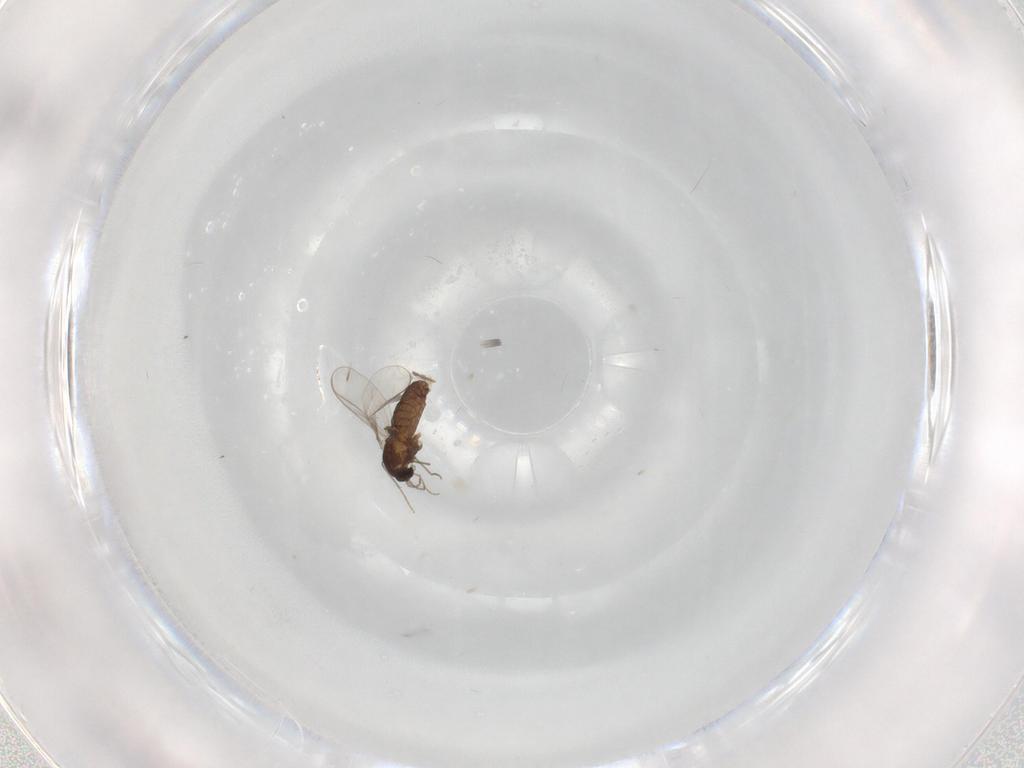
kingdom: Animalia
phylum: Arthropoda
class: Insecta
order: Diptera
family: Chironomidae
